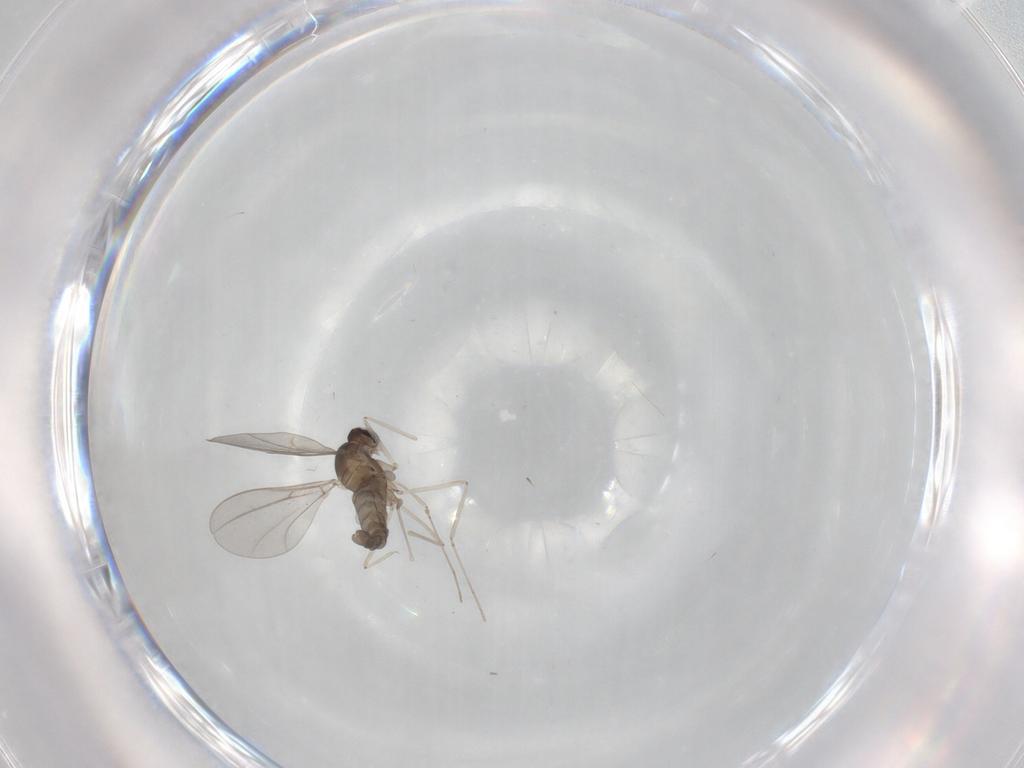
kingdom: Animalia
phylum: Arthropoda
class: Insecta
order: Diptera
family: Cecidomyiidae
